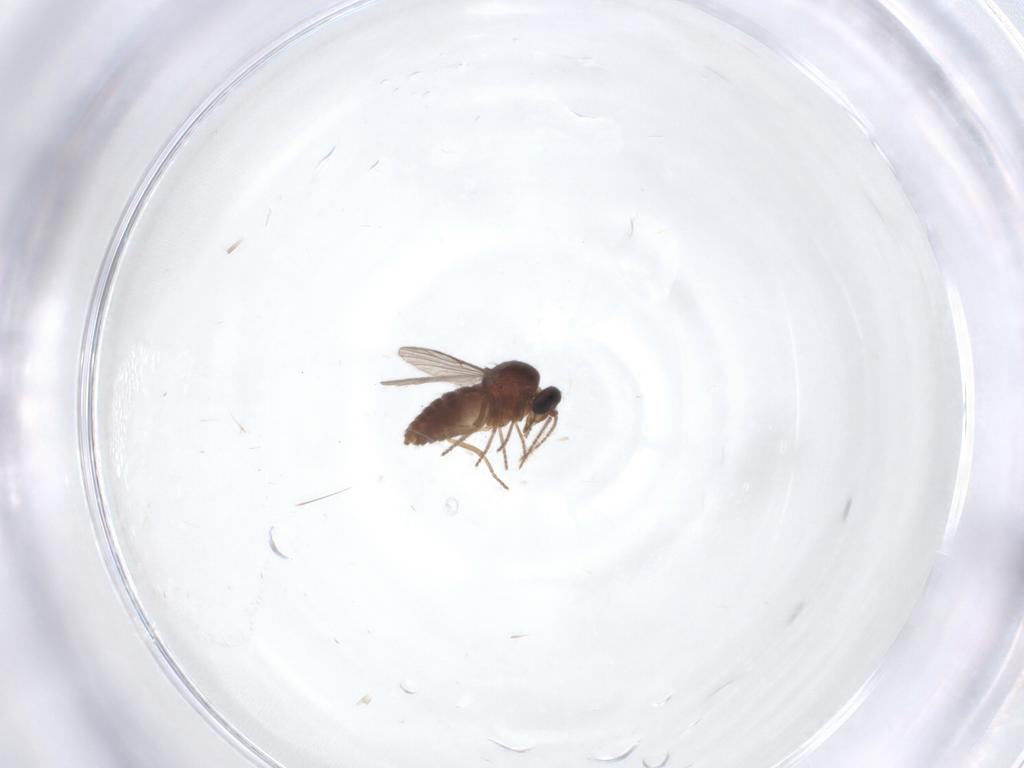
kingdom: Animalia
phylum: Arthropoda
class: Insecta
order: Diptera
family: Ceratopogonidae
